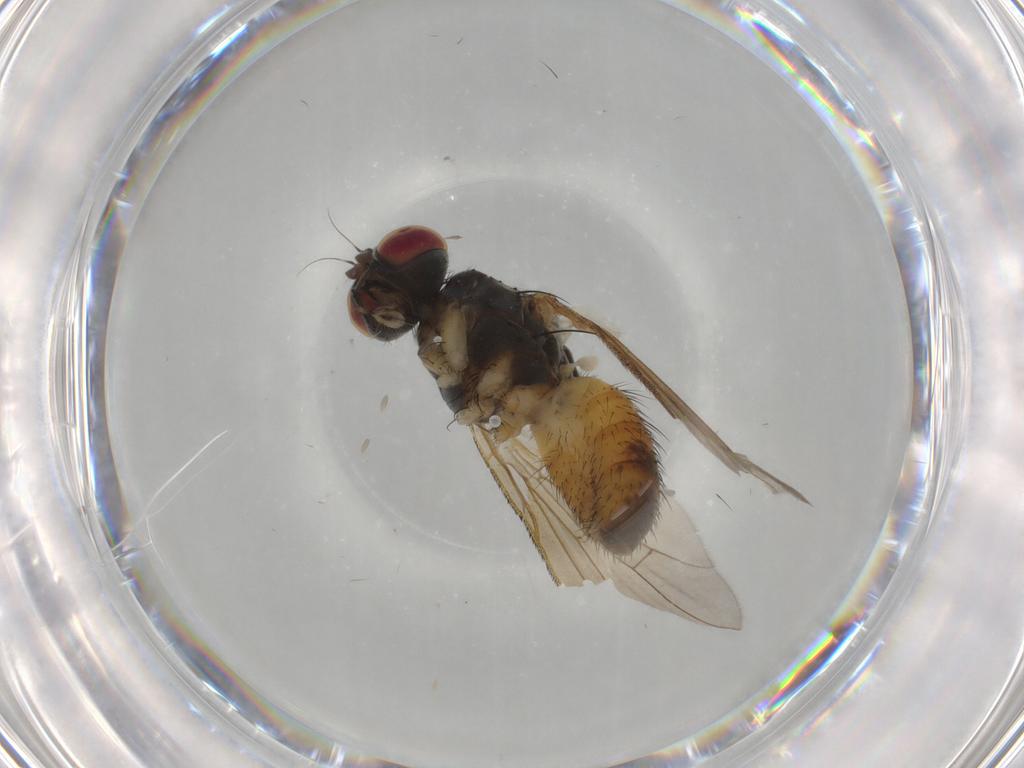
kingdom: Animalia
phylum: Arthropoda
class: Insecta
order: Diptera
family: Muscidae
